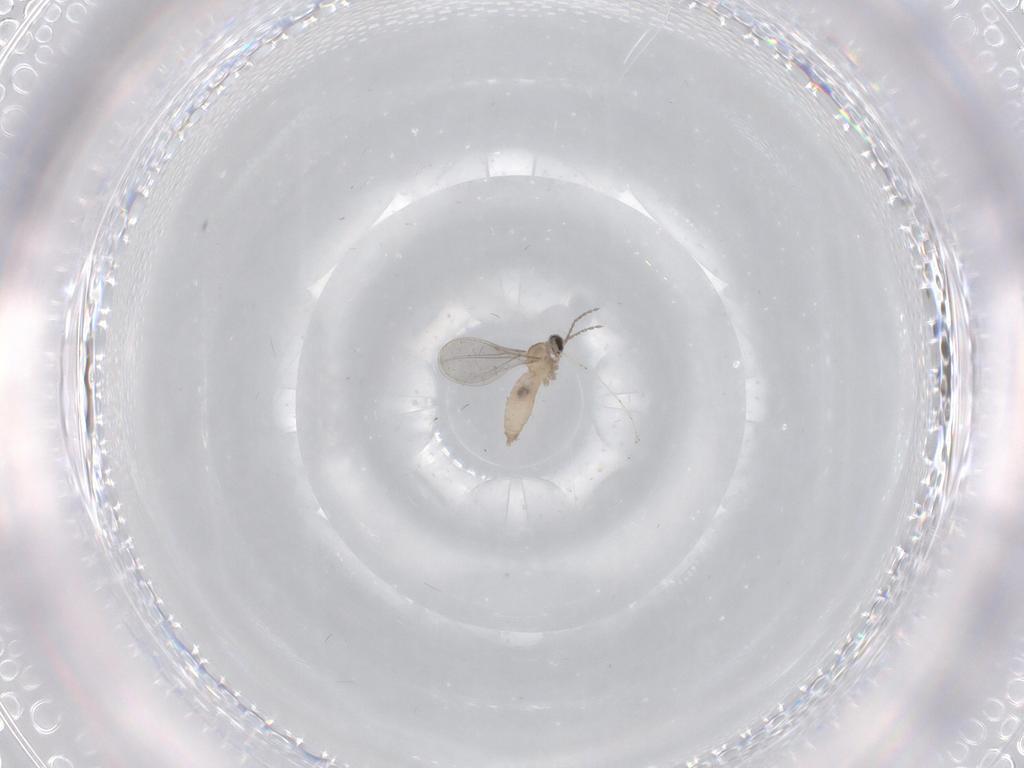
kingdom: Animalia
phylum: Arthropoda
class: Insecta
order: Diptera
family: Cecidomyiidae
